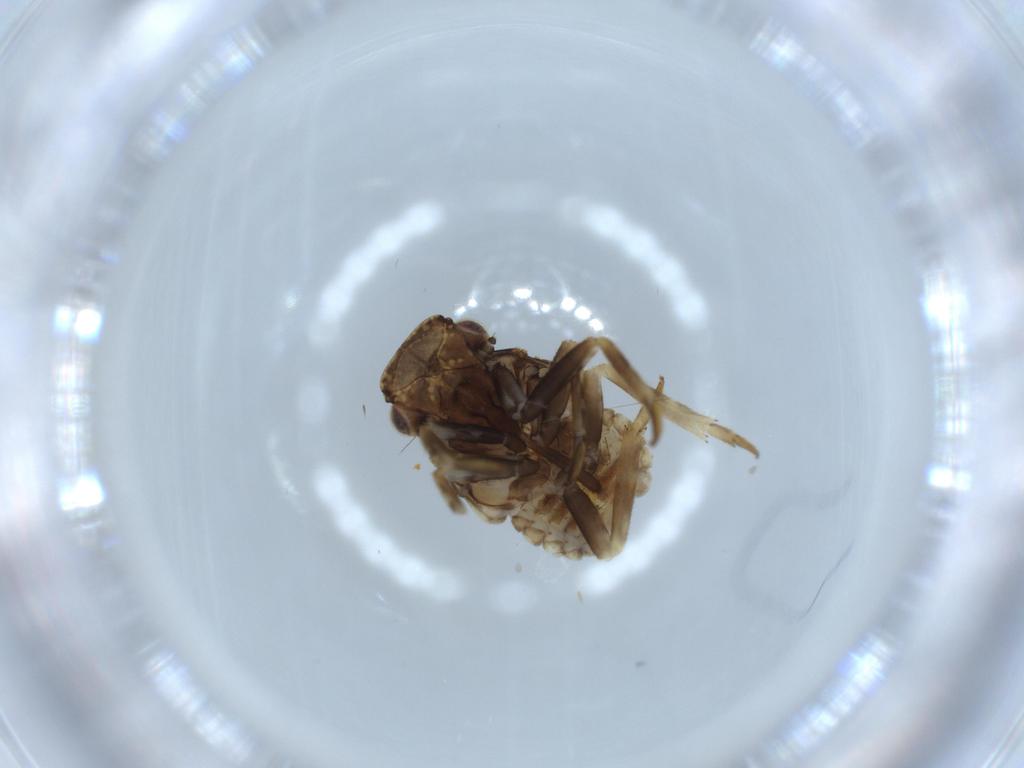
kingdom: Animalia
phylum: Arthropoda
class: Insecta
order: Hemiptera
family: Fulgoroidea_incertae_sedis
